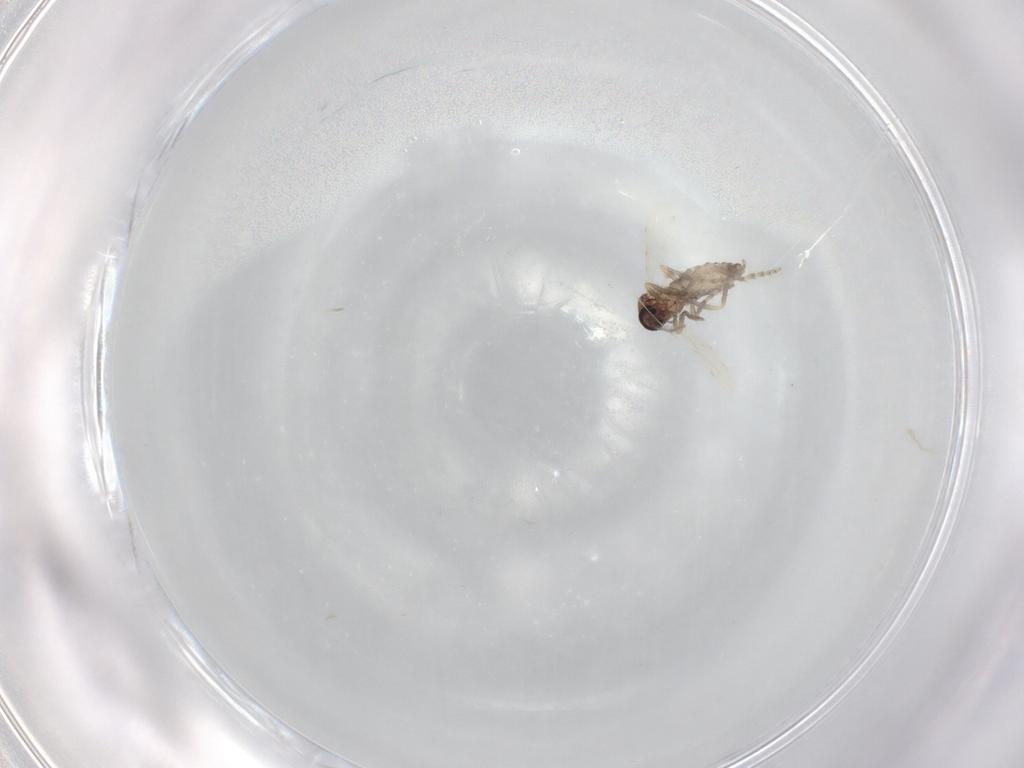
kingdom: Animalia
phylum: Arthropoda
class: Insecta
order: Diptera
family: Ceratopogonidae
